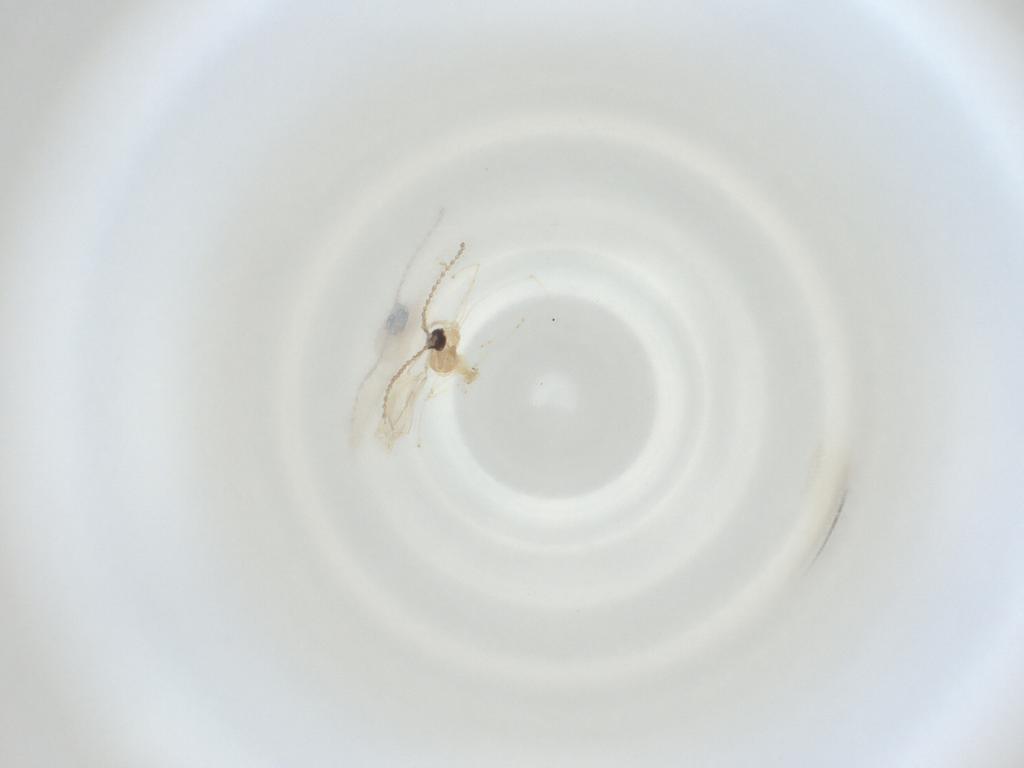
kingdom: Animalia
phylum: Arthropoda
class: Insecta
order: Diptera
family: Cecidomyiidae
